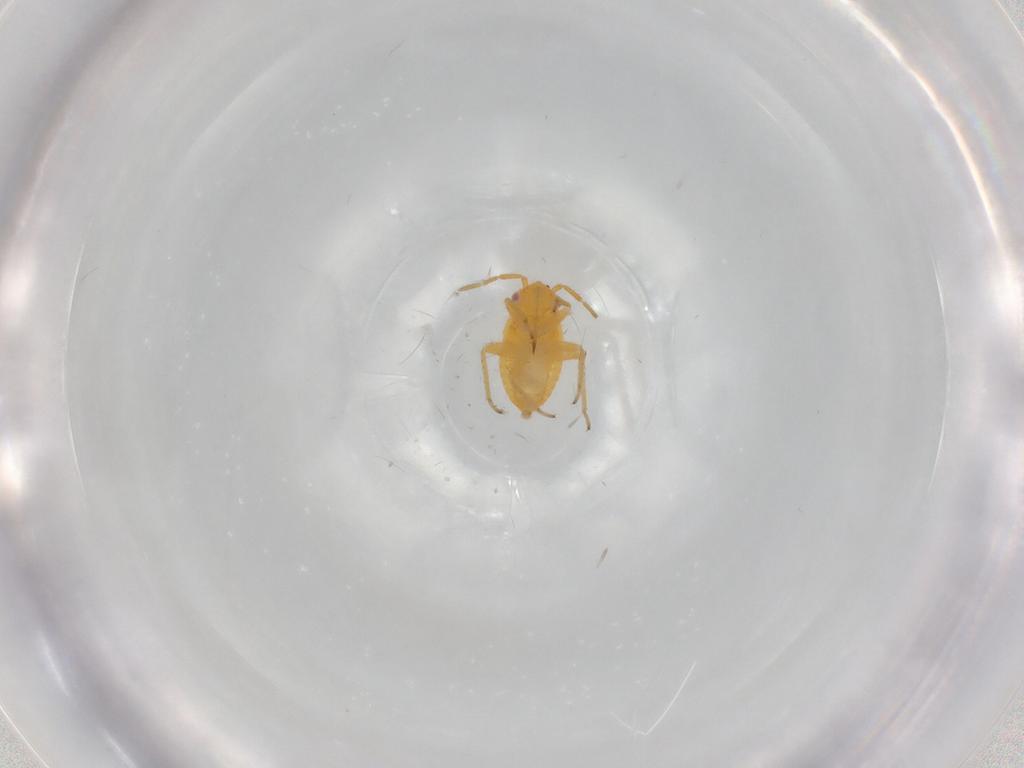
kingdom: Animalia
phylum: Arthropoda
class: Insecta
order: Hemiptera
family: Miridae
